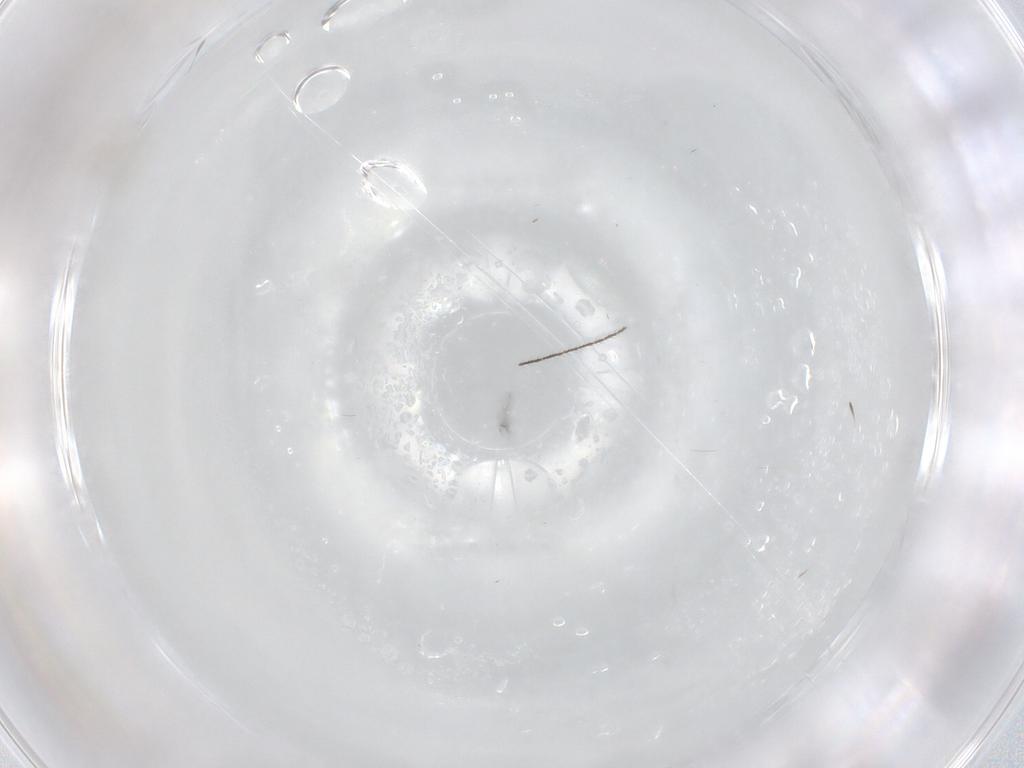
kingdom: Animalia
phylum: Arthropoda
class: Insecta
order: Hymenoptera
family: Mymaridae
